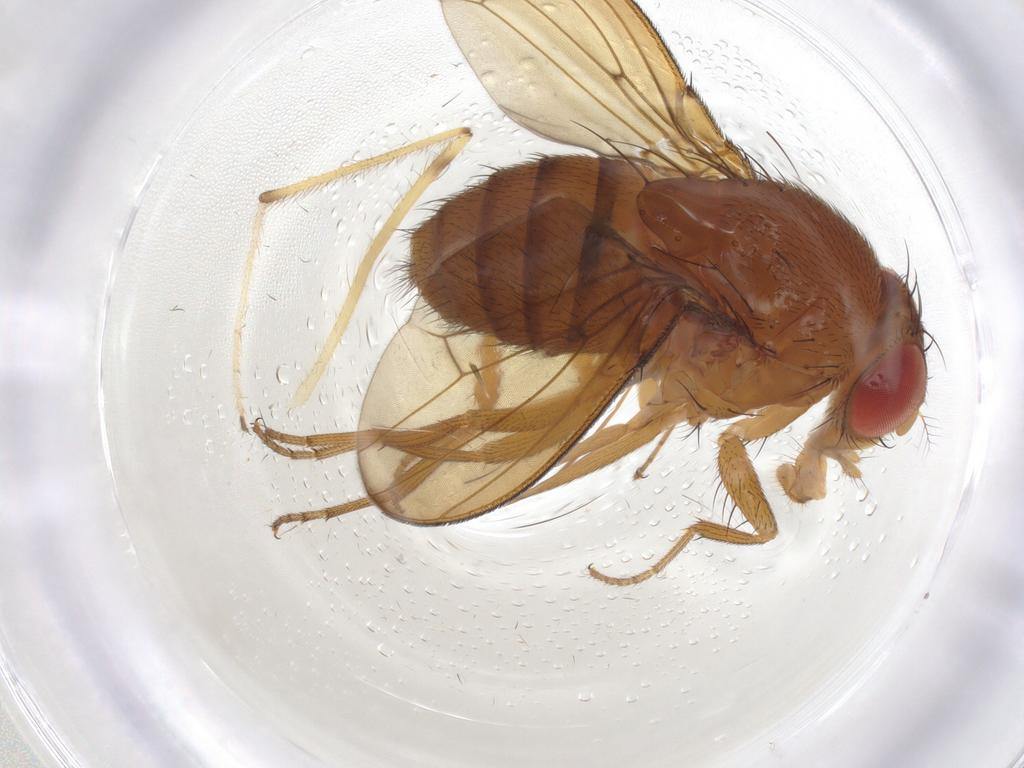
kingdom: Animalia
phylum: Arthropoda
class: Insecta
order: Diptera
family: Drosophilidae
